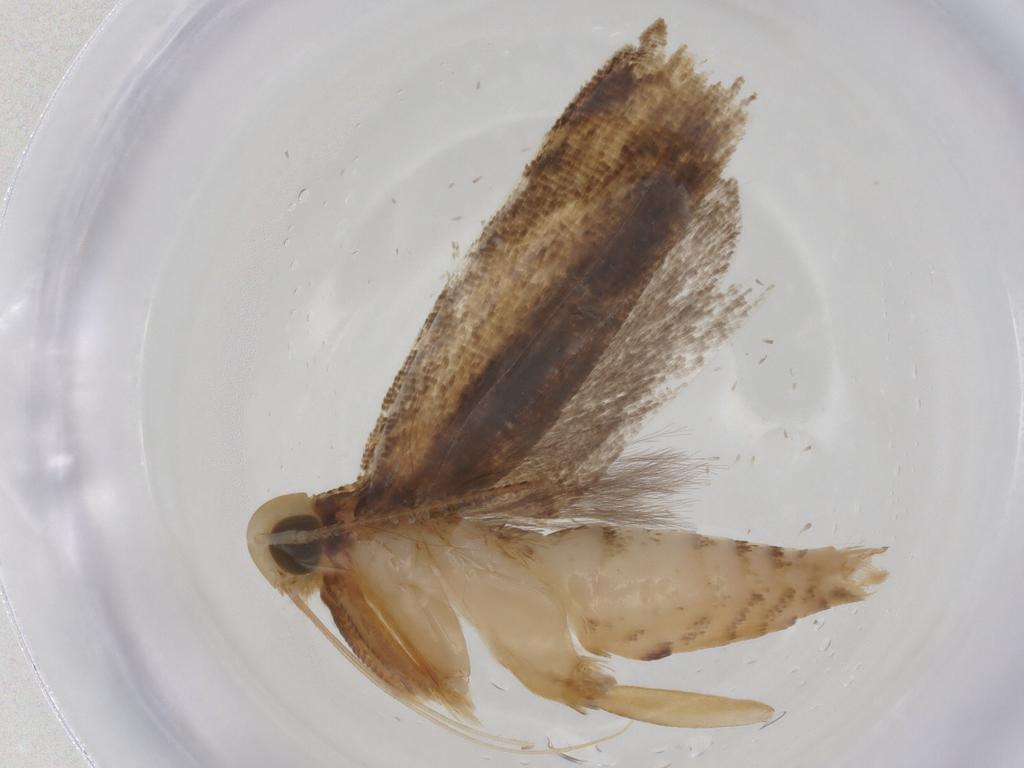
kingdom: Animalia
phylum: Arthropoda
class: Insecta
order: Lepidoptera
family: Gelechiidae
